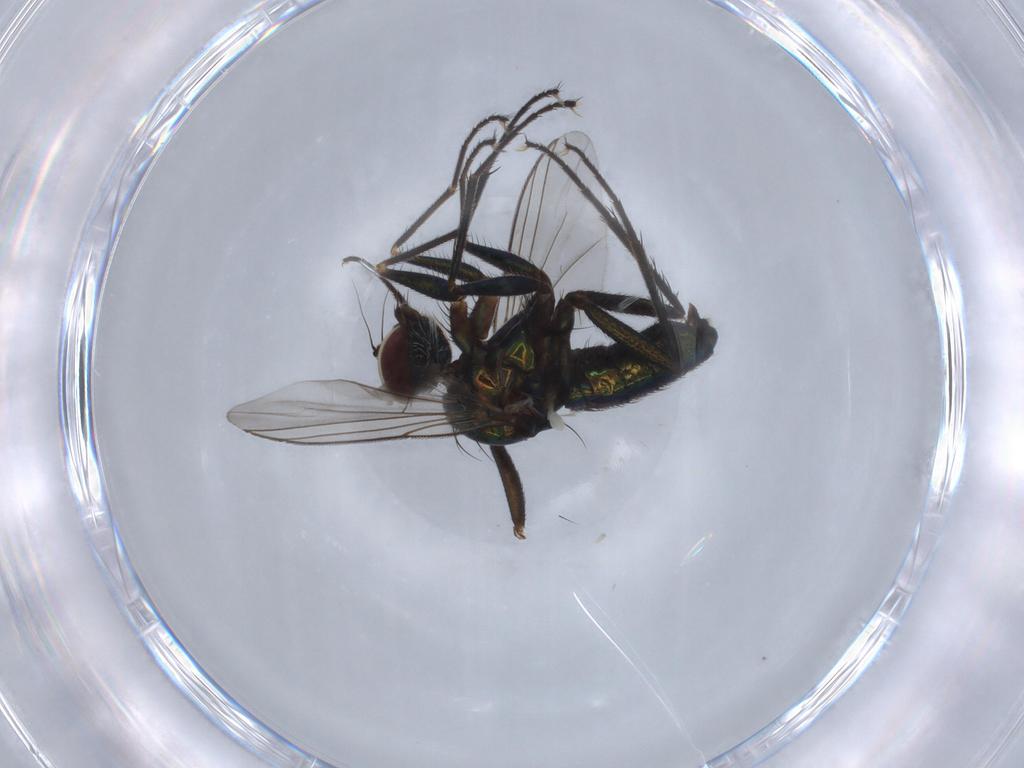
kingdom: Animalia
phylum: Arthropoda
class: Insecta
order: Diptera
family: Dolichopodidae
